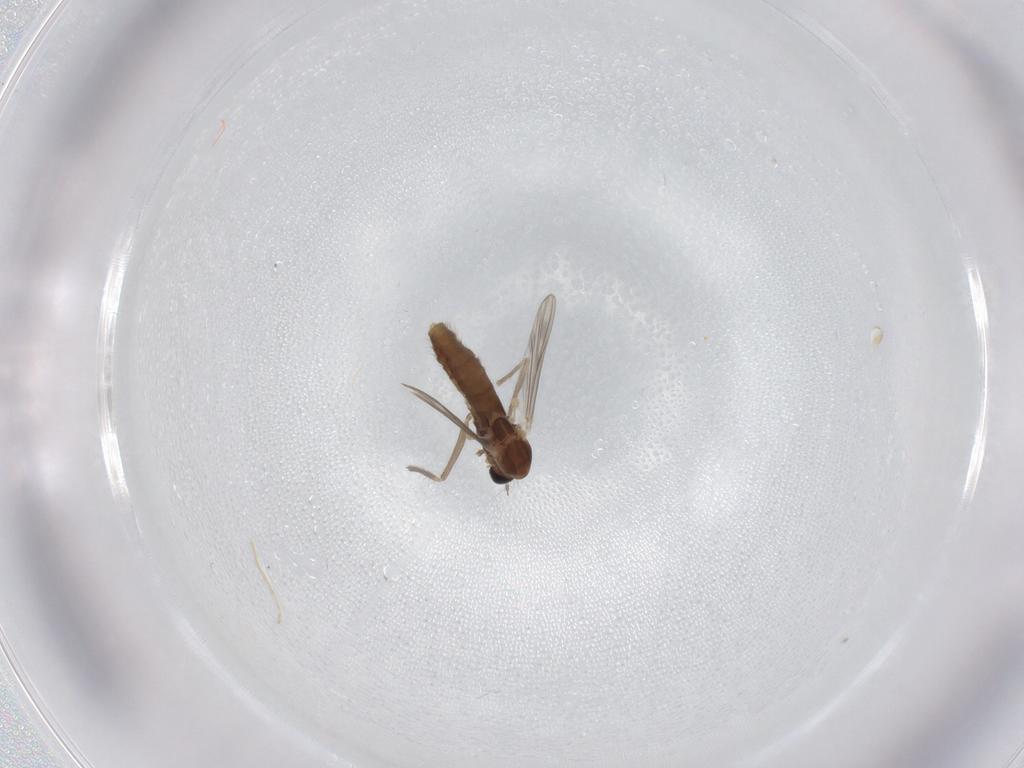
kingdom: Animalia
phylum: Arthropoda
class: Insecta
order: Diptera
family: Chironomidae
